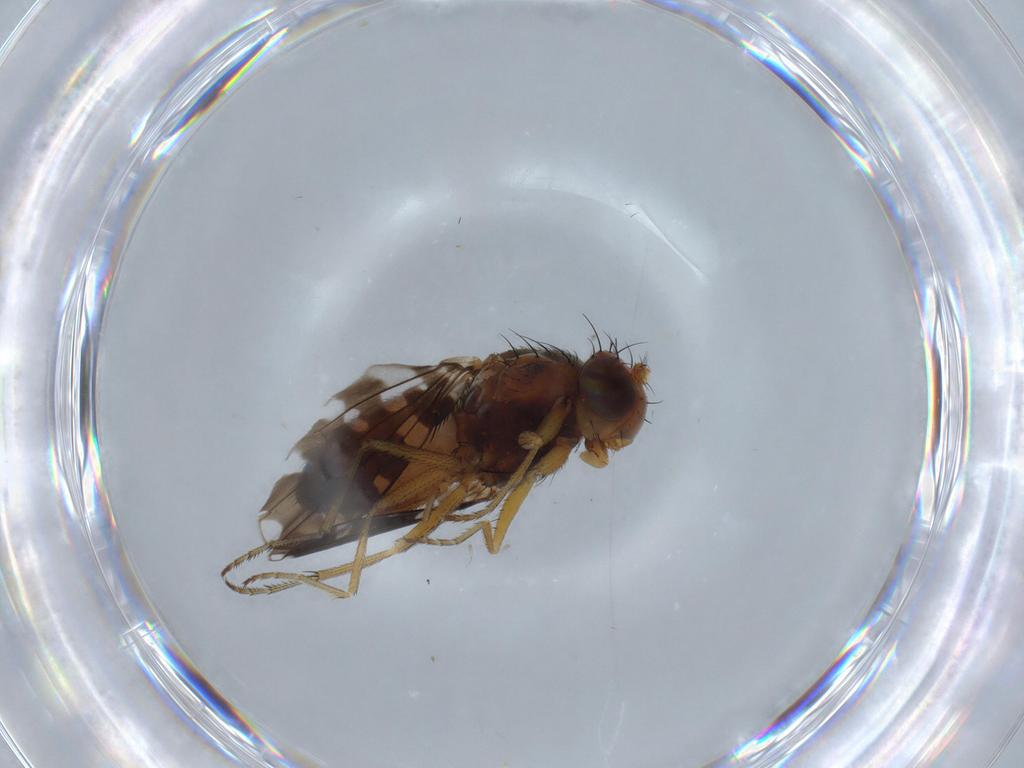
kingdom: Animalia
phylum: Arthropoda
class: Insecta
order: Diptera
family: Ephydridae
